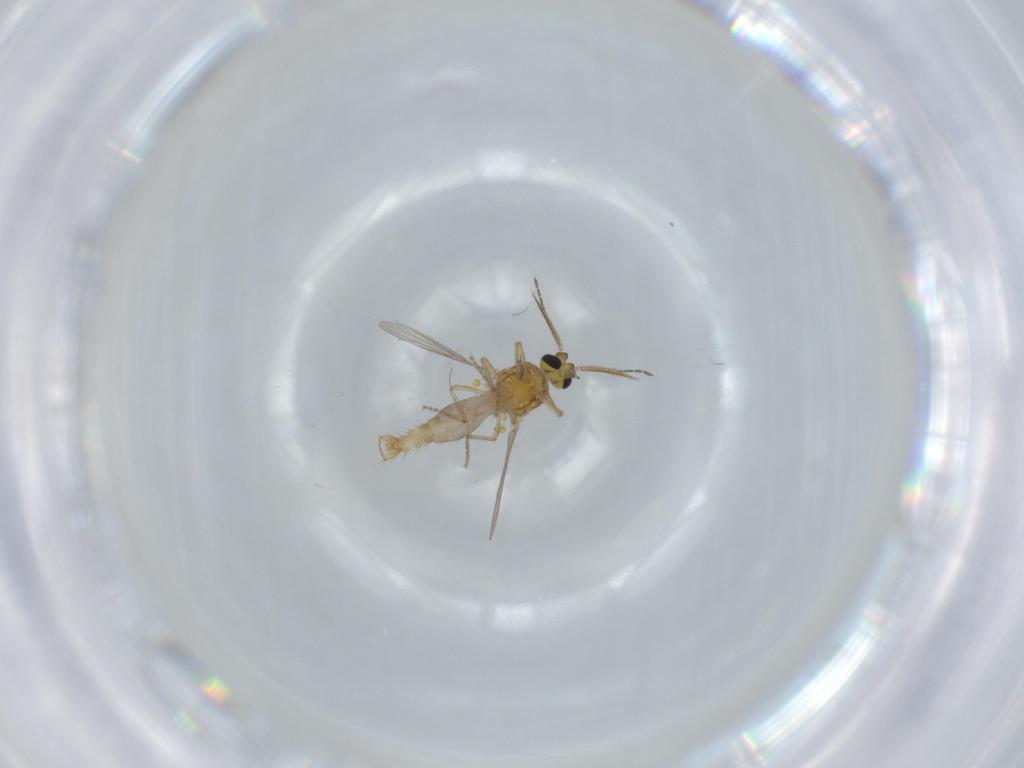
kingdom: Animalia
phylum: Arthropoda
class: Insecta
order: Diptera
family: Ceratopogonidae
